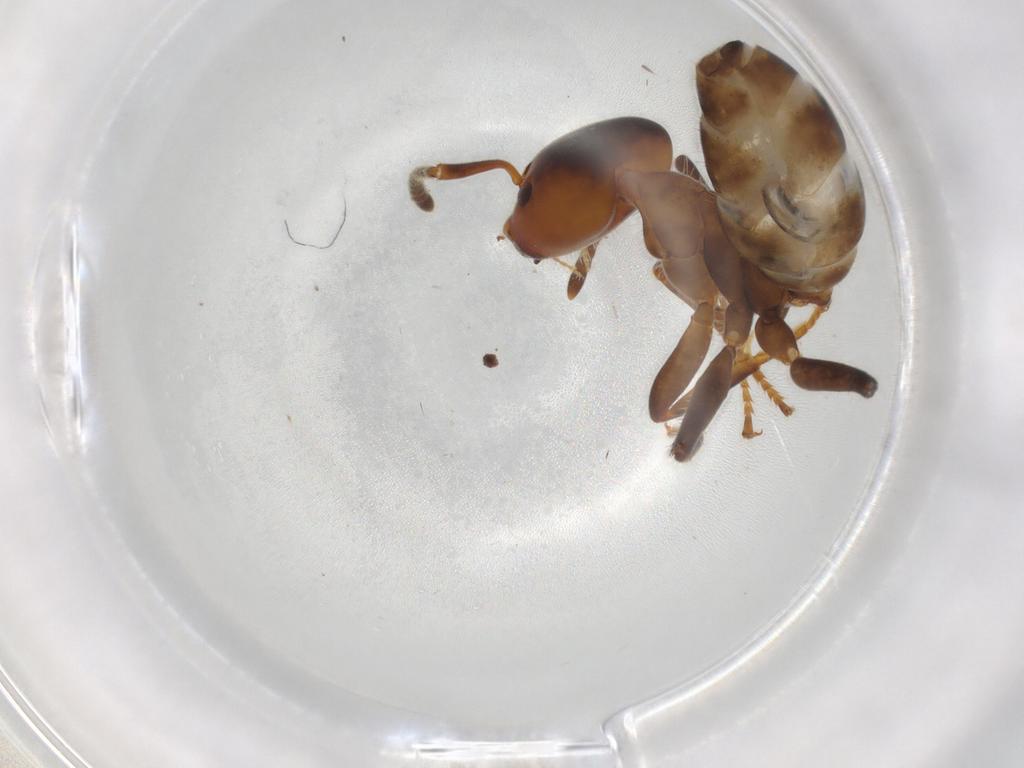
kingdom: Animalia
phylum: Arthropoda
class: Insecta
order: Hymenoptera
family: Formicidae
